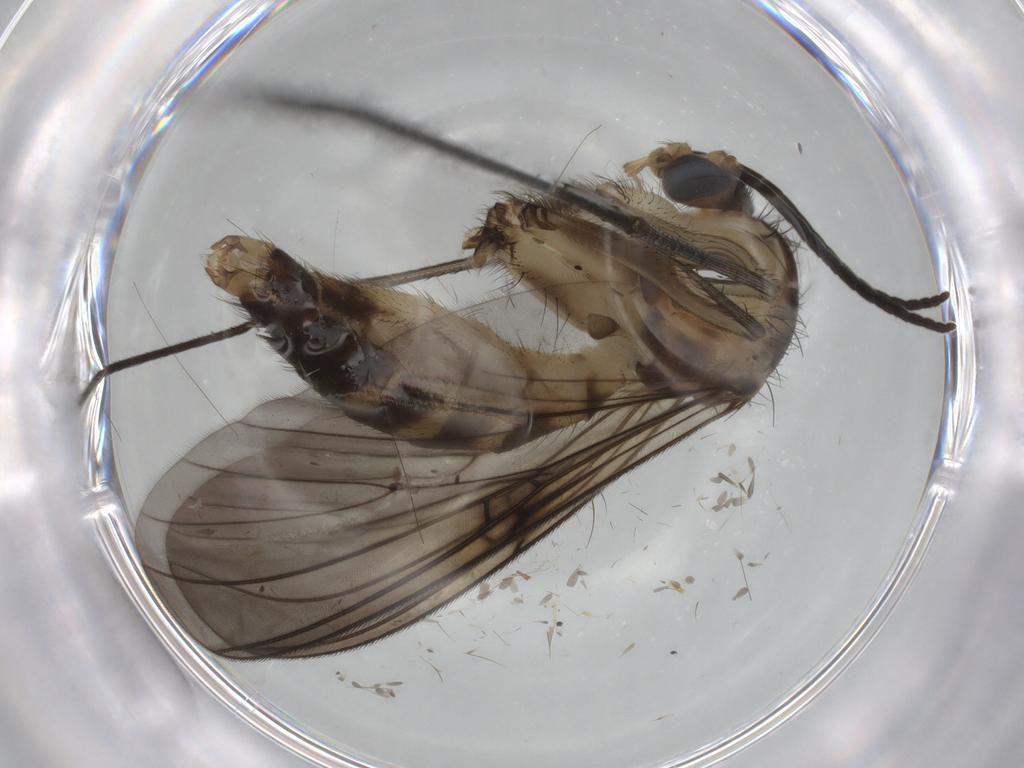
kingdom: Animalia
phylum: Arthropoda
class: Insecta
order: Diptera
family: Mycetophilidae
